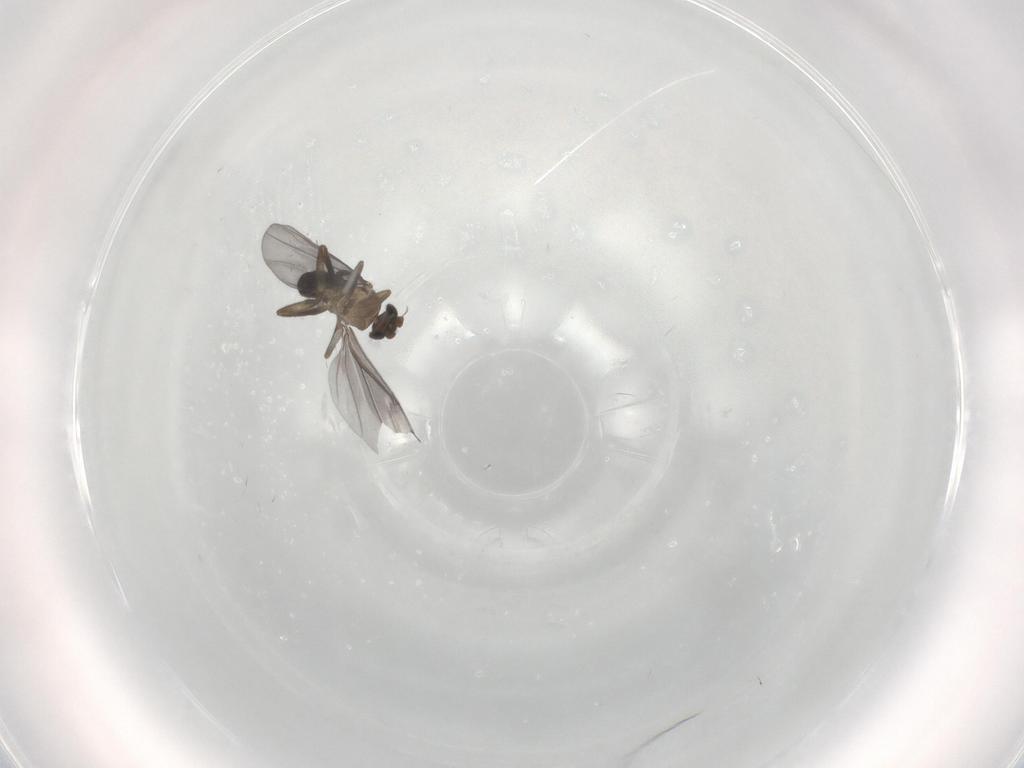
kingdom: Animalia
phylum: Arthropoda
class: Insecta
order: Diptera
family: Phoridae
